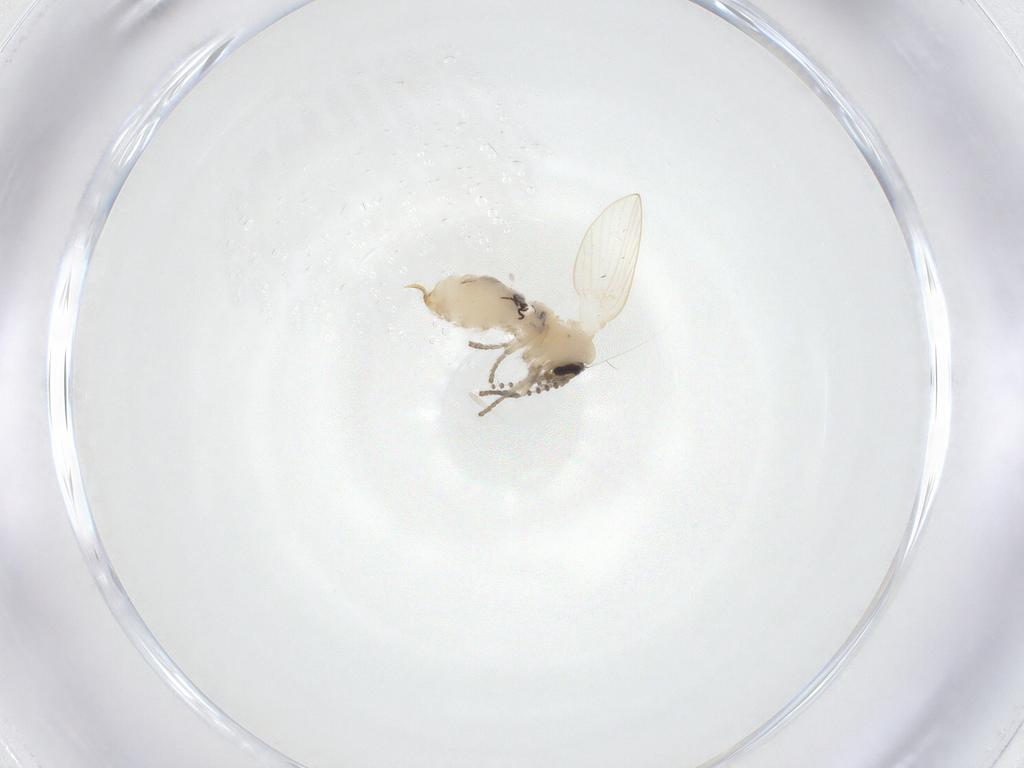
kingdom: Animalia
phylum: Arthropoda
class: Insecta
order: Diptera
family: Psychodidae
